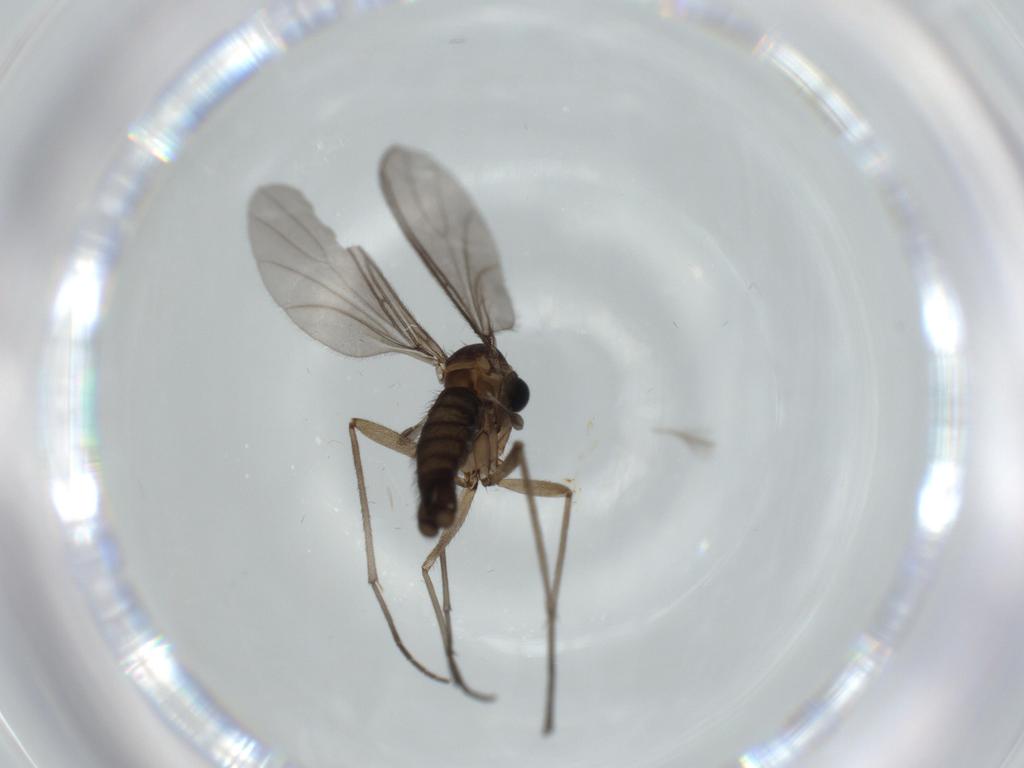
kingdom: Animalia
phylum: Arthropoda
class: Insecta
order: Diptera
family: Sciaridae
